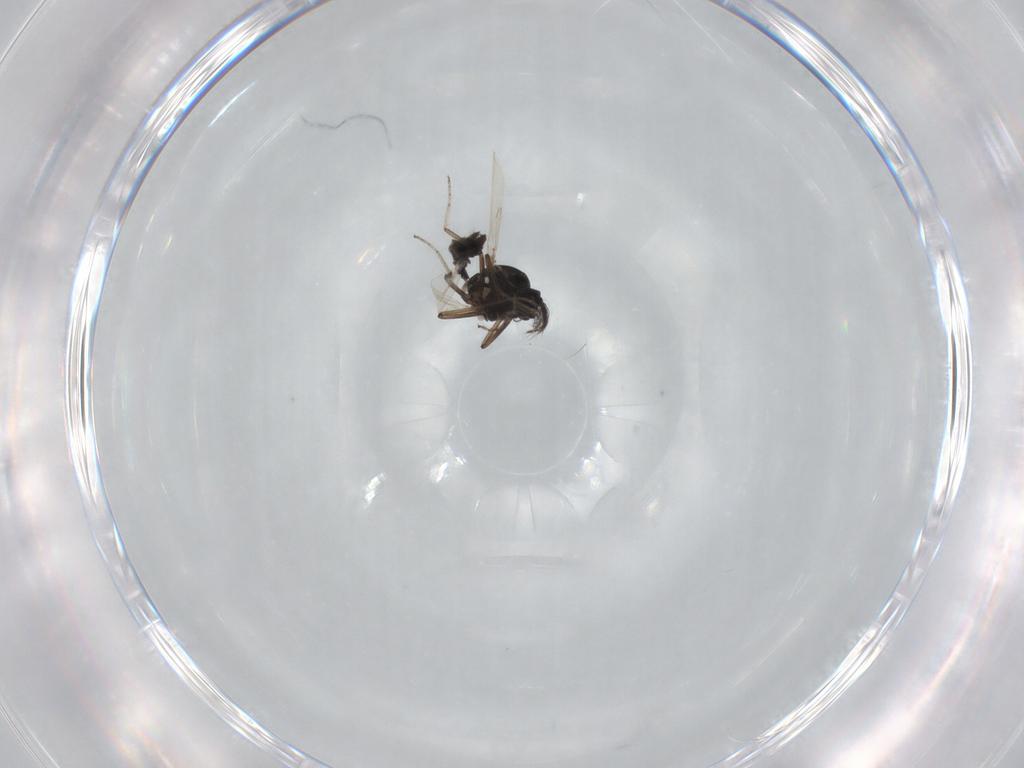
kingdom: Animalia
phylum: Arthropoda
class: Insecta
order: Diptera
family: Ceratopogonidae
